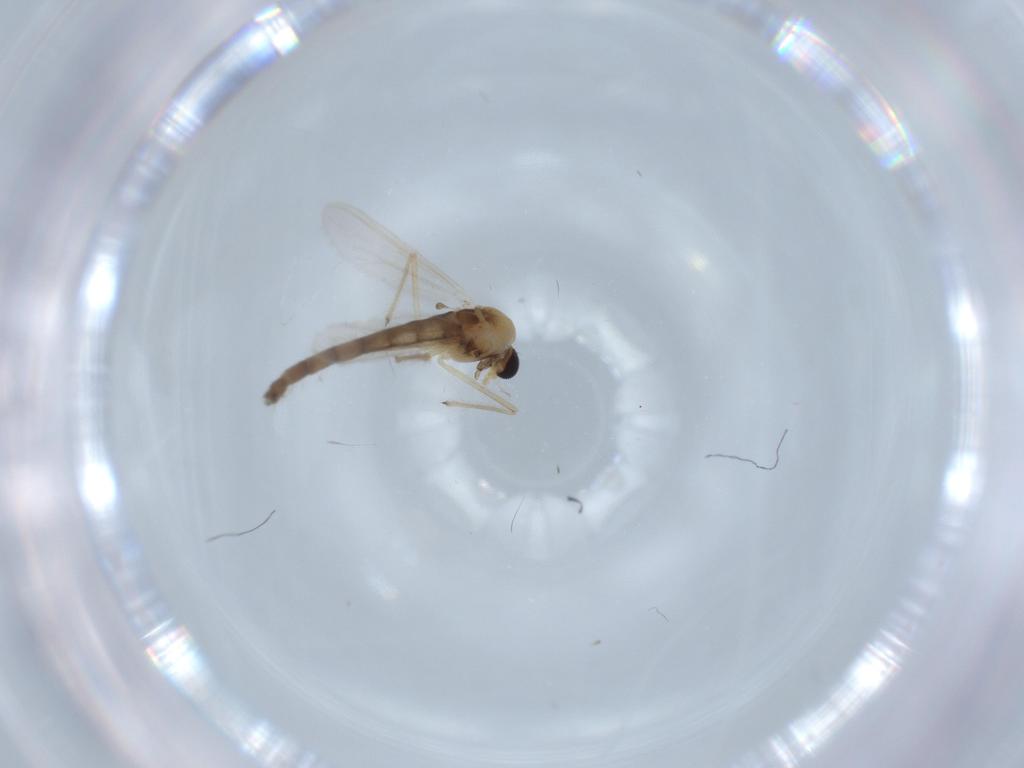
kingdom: Animalia
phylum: Arthropoda
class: Insecta
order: Diptera
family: Chironomidae
